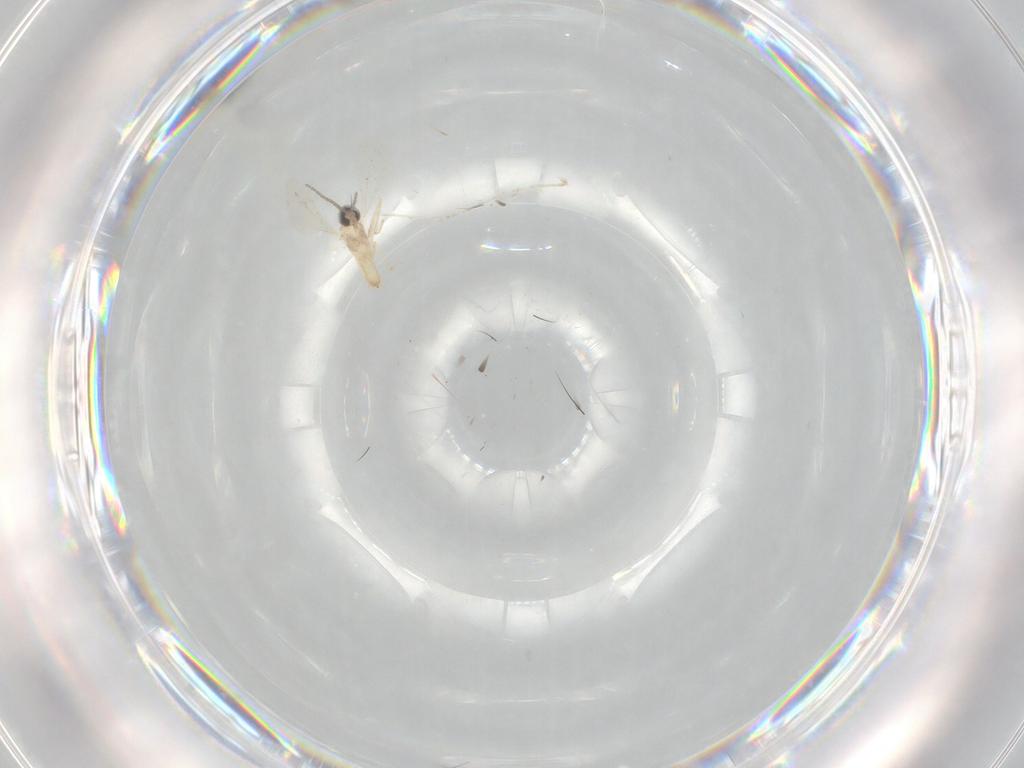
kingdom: Animalia
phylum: Arthropoda
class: Insecta
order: Diptera
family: Cecidomyiidae
